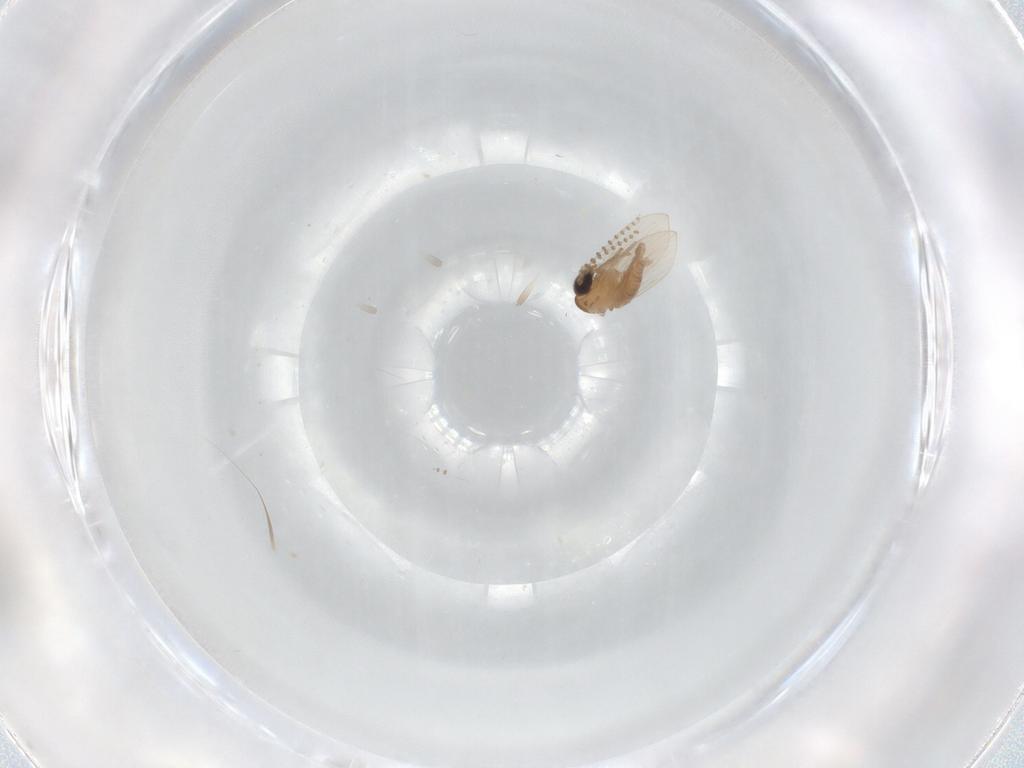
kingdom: Animalia
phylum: Arthropoda
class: Insecta
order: Diptera
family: Psychodidae
